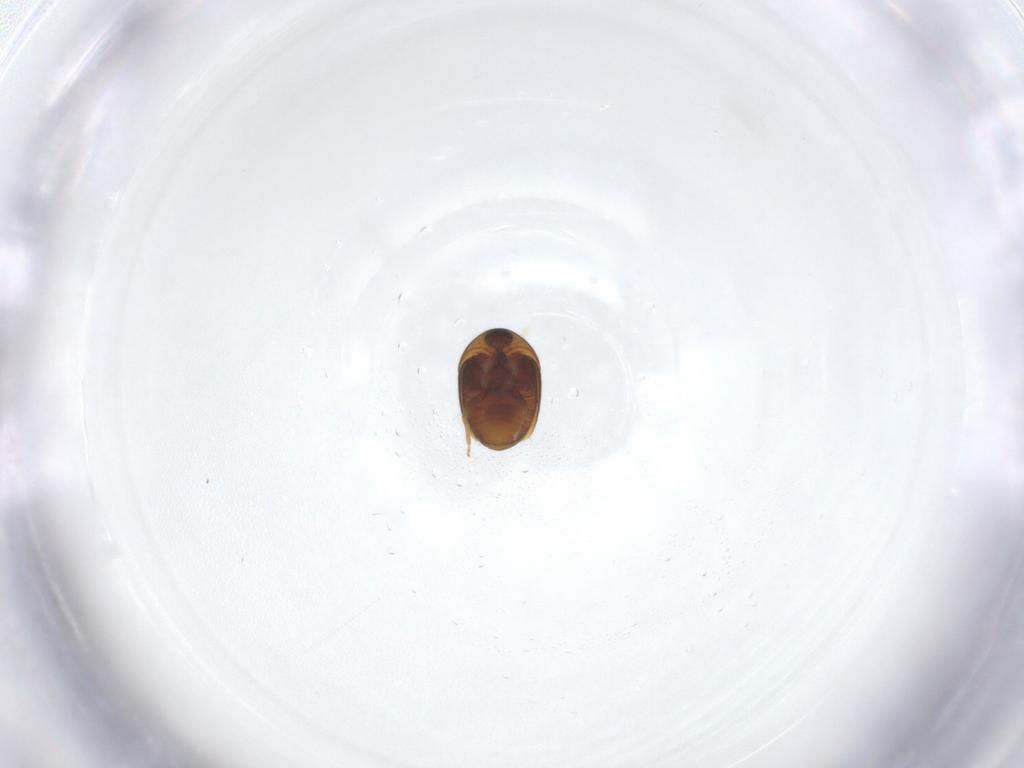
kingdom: Animalia
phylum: Arthropoda
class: Insecta
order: Coleoptera
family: Corylophidae
